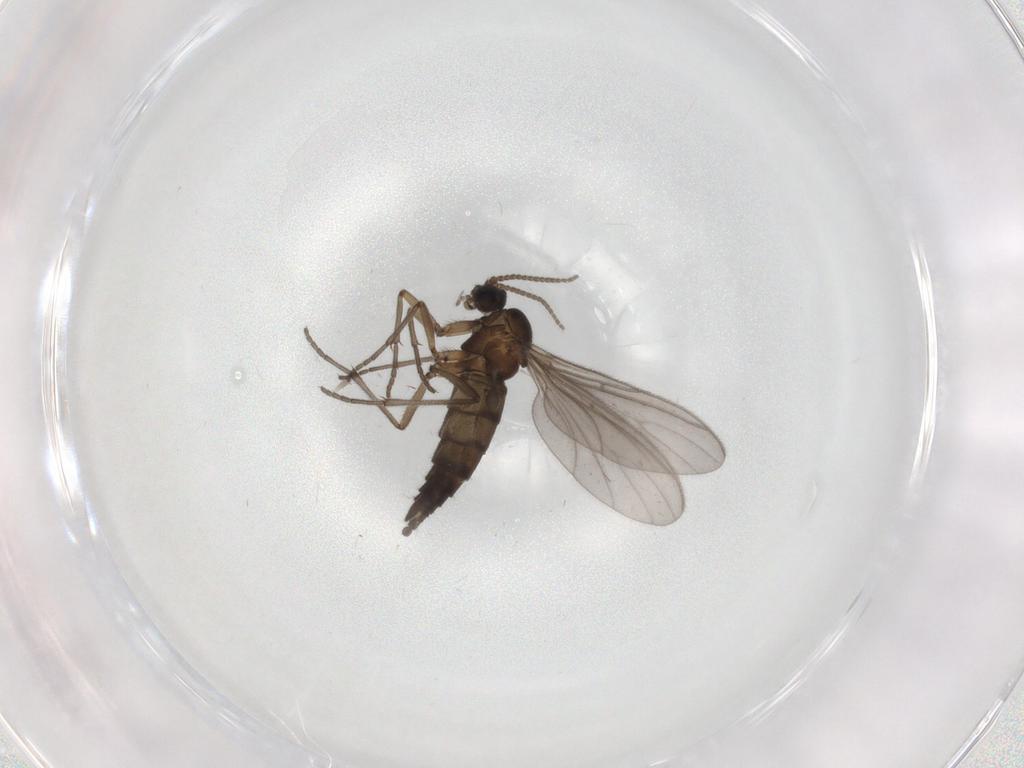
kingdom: Animalia
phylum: Arthropoda
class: Insecta
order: Diptera
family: Sciaridae
